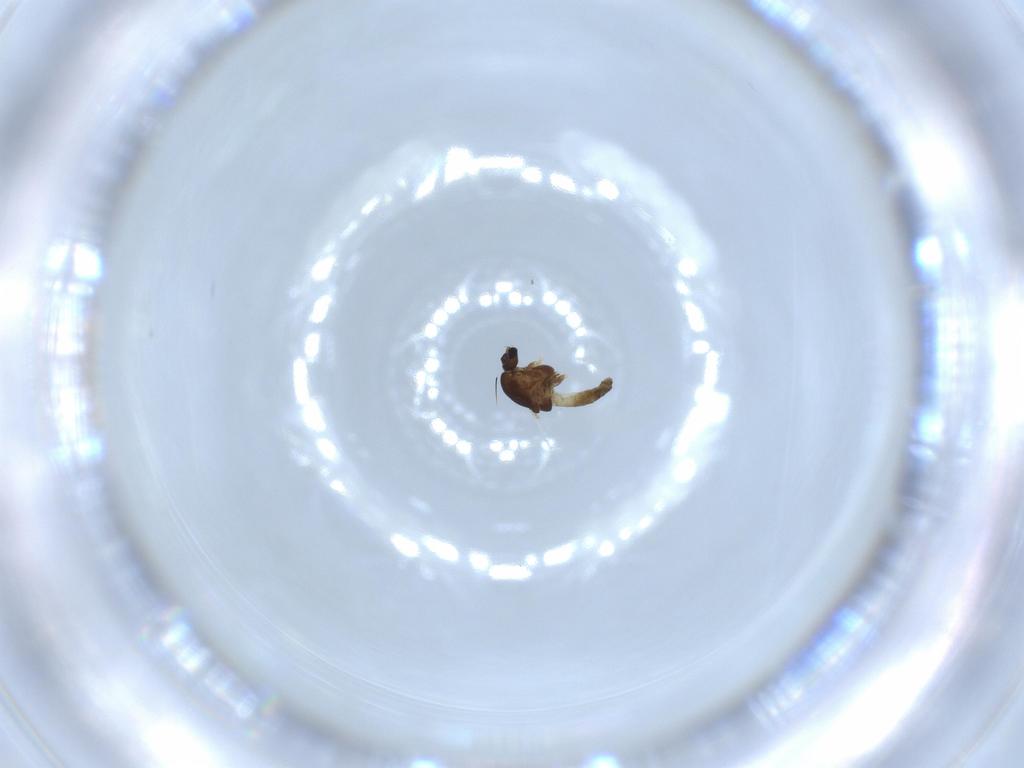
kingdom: Animalia
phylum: Arthropoda
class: Insecta
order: Diptera
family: Chironomidae
